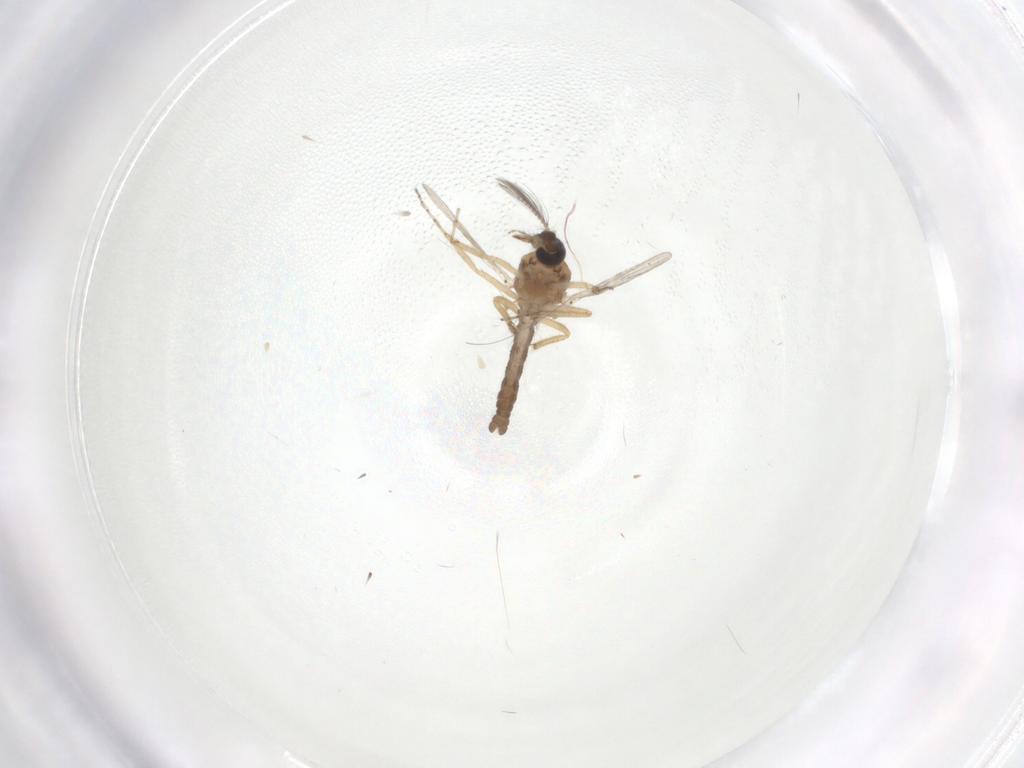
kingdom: Animalia
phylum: Arthropoda
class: Insecta
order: Diptera
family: Ceratopogonidae
